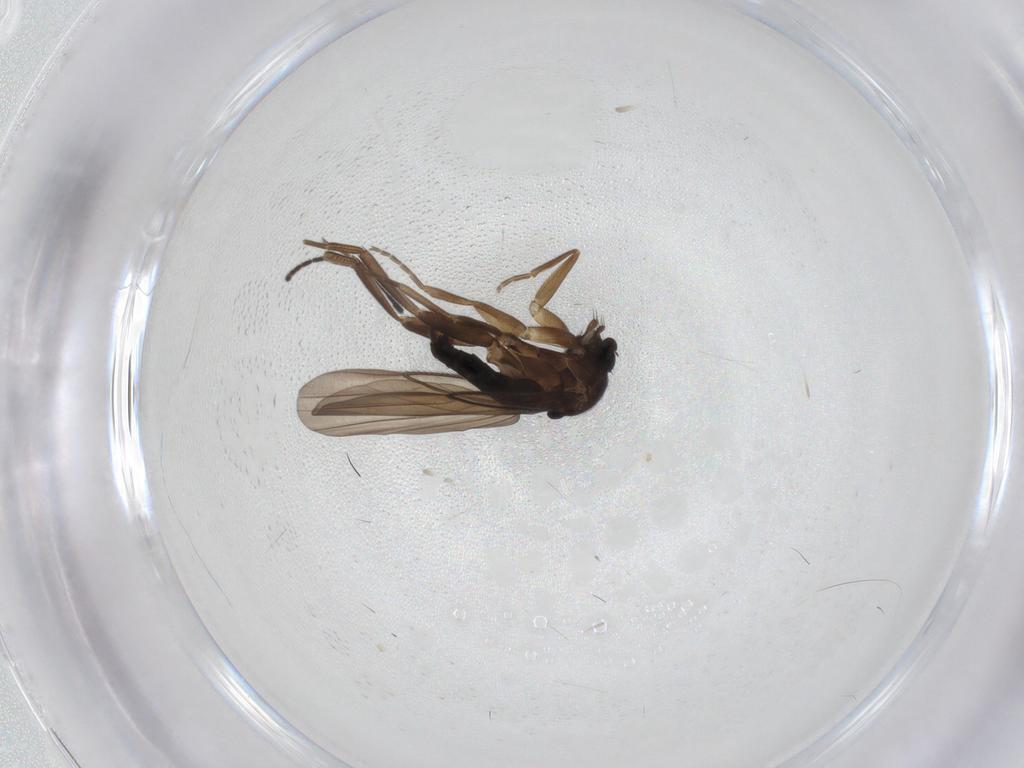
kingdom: Animalia
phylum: Arthropoda
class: Insecta
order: Diptera
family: Sciaridae
